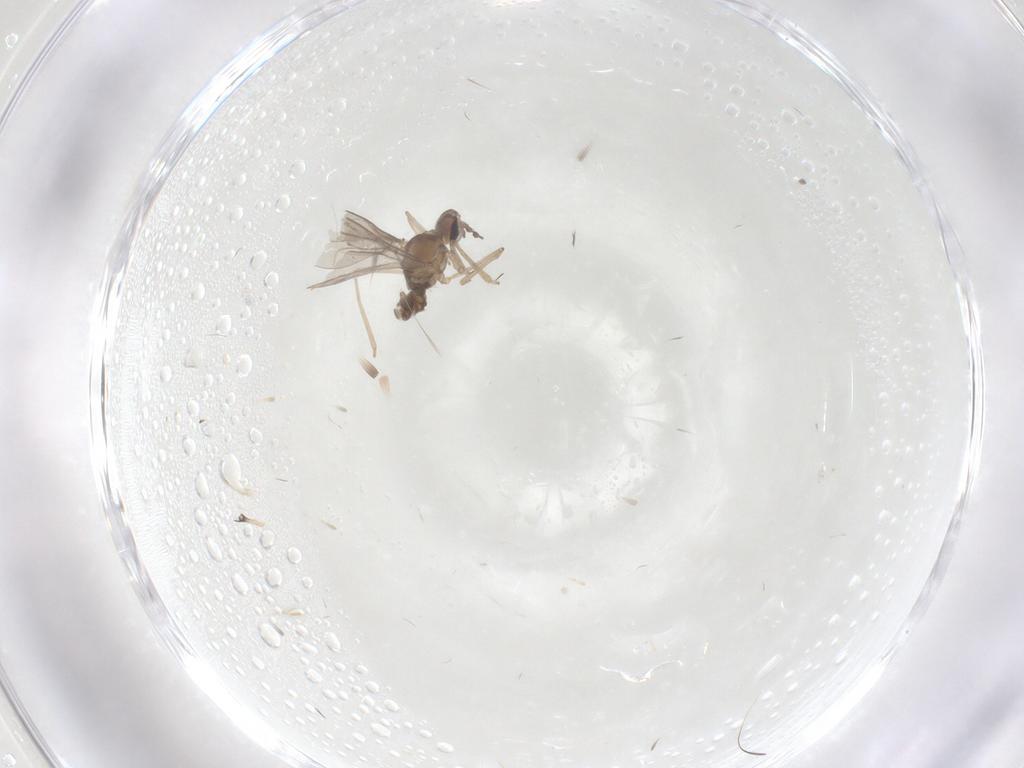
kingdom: Animalia
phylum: Arthropoda
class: Insecta
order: Diptera
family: Cecidomyiidae
